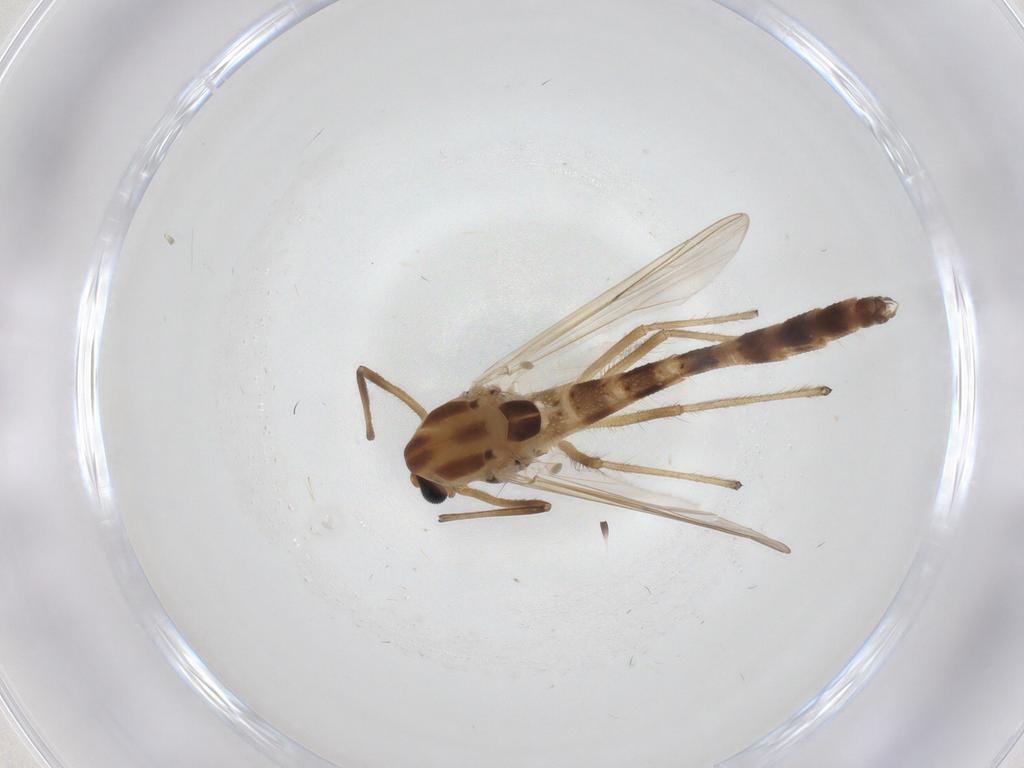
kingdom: Animalia
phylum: Arthropoda
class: Insecta
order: Diptera
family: Chironomidae
